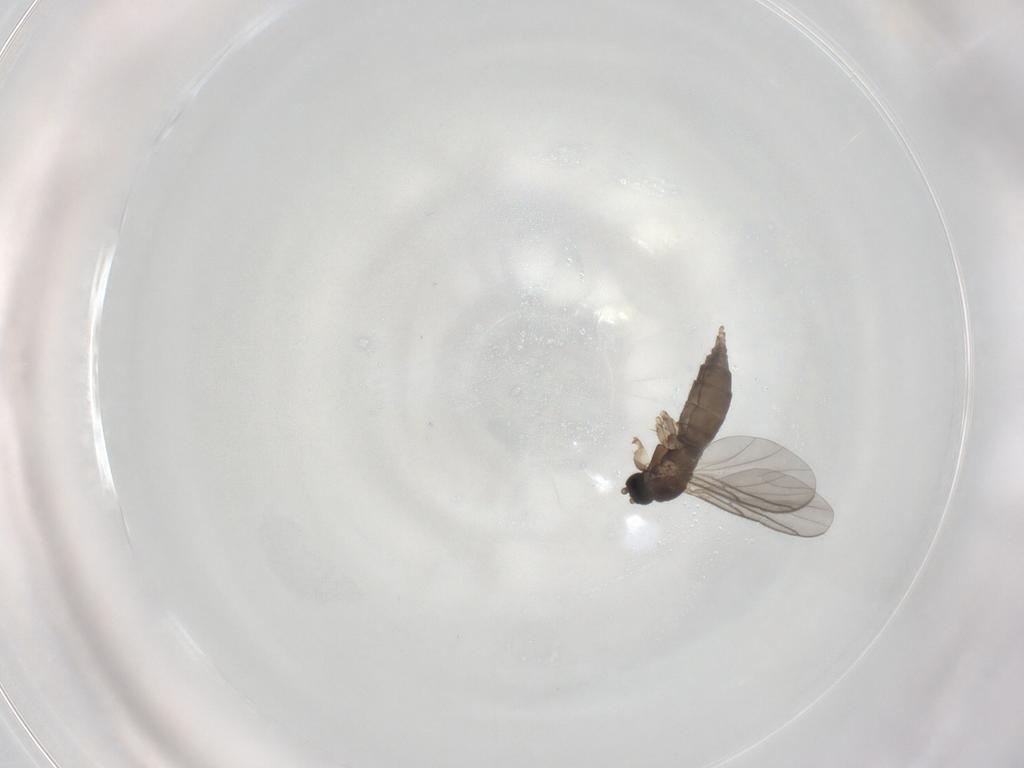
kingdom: Animalia
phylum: Arthropoda
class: Insecta
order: Diptera
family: Sciaridae
